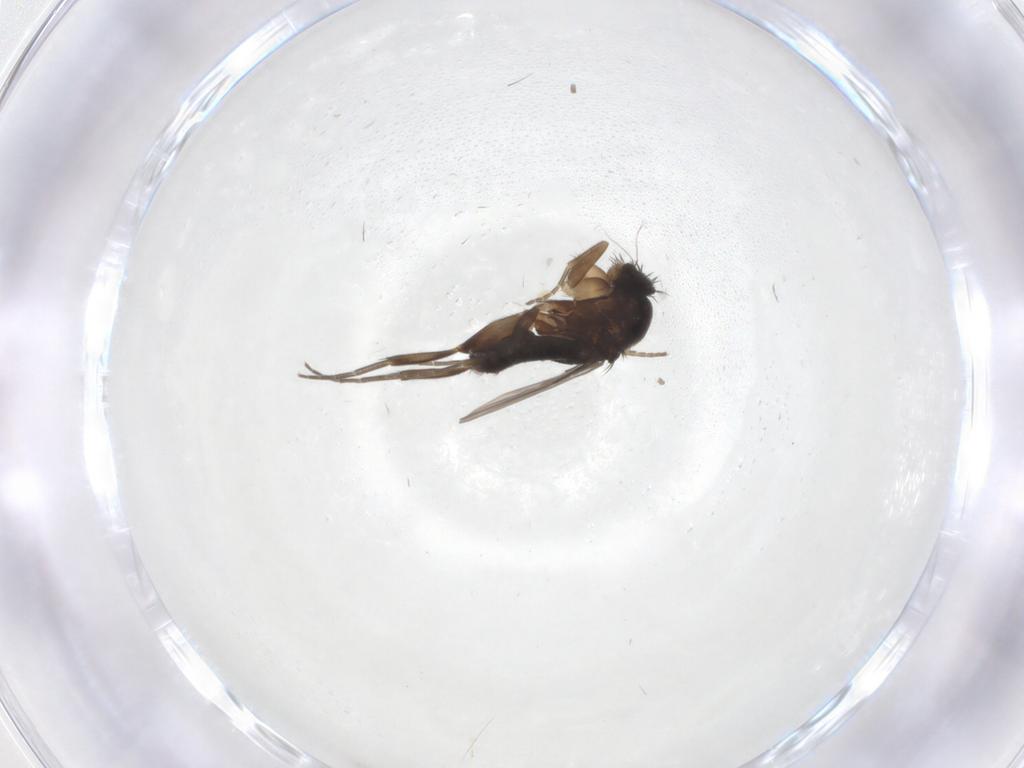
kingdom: Animalia
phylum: Arthropoda
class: Insecta
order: Diptera
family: Phoridae
